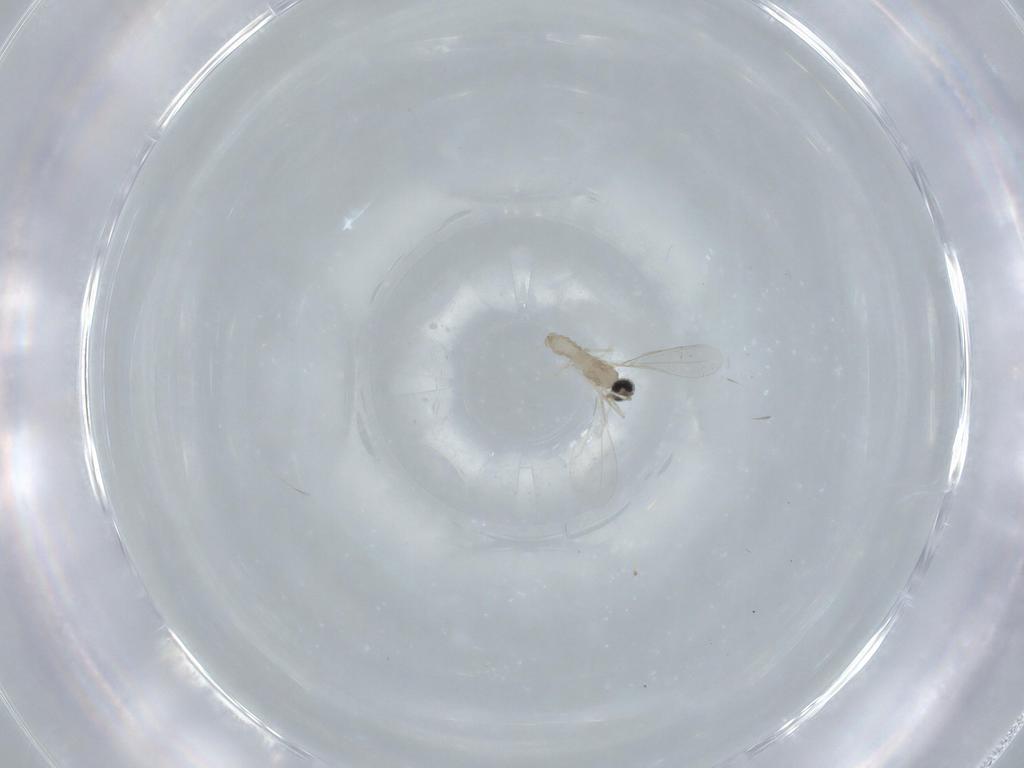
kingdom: Animalia
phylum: Arthropoda
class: Insecta
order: Diptera
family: Cecidomyiidae
